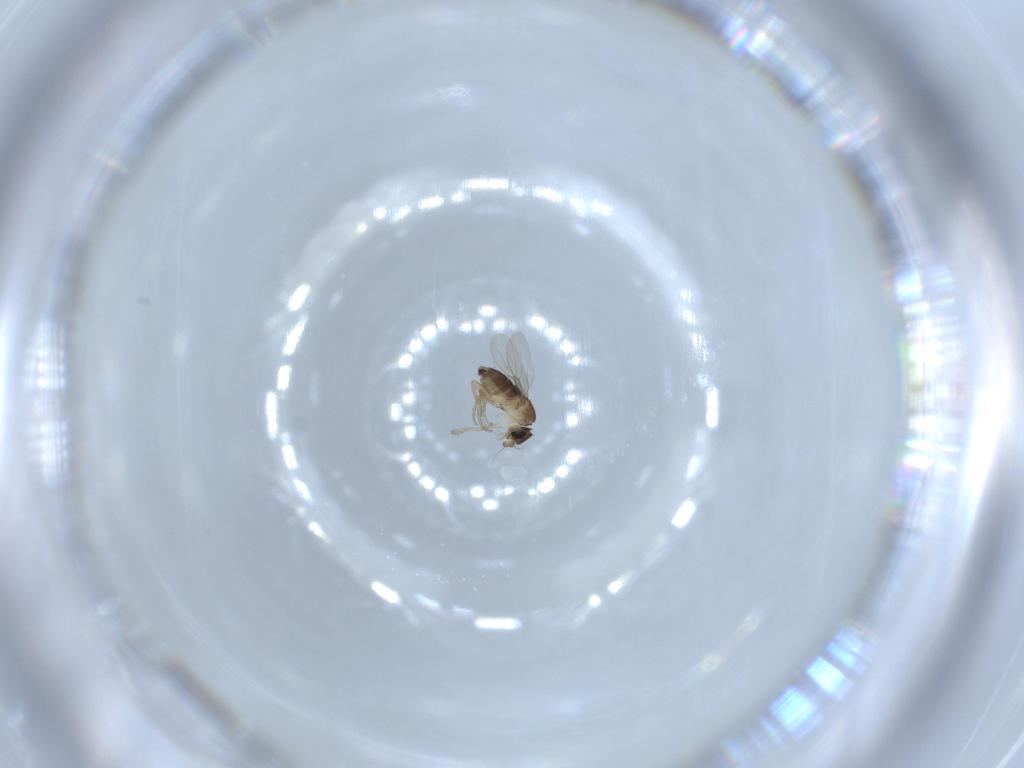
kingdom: Animalia
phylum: Arthropoda
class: Insecta
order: Diptera
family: Phoridae
